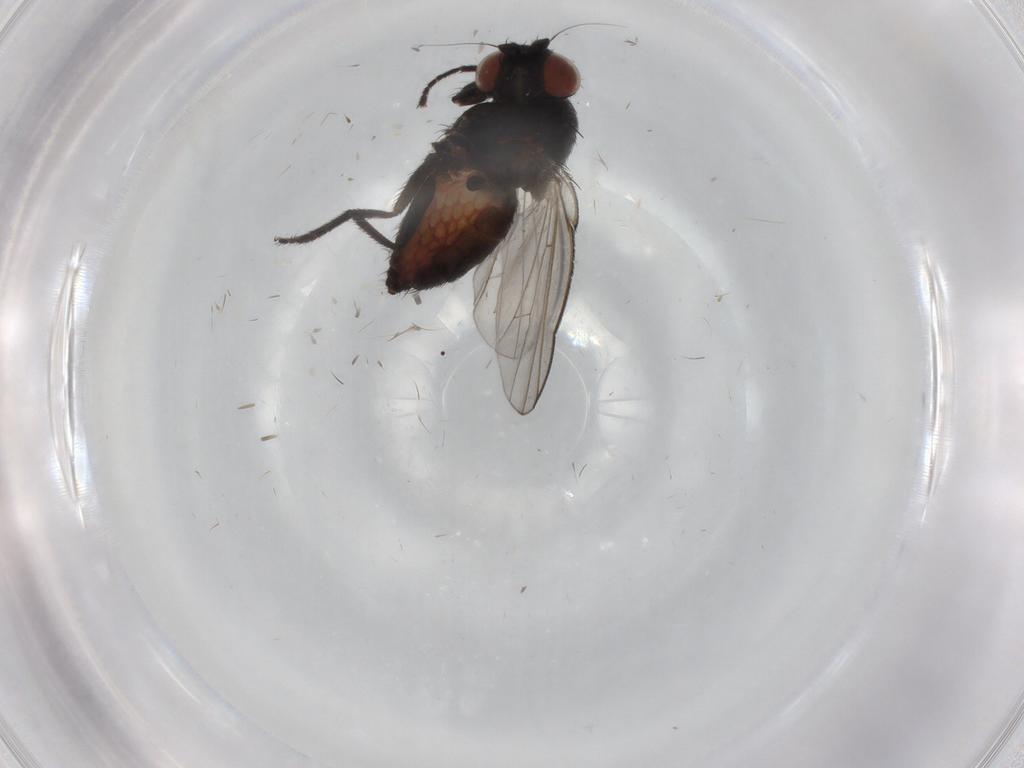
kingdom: Animalia
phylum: Arthropoda
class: Insecta
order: Diptera
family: Milichiidae
